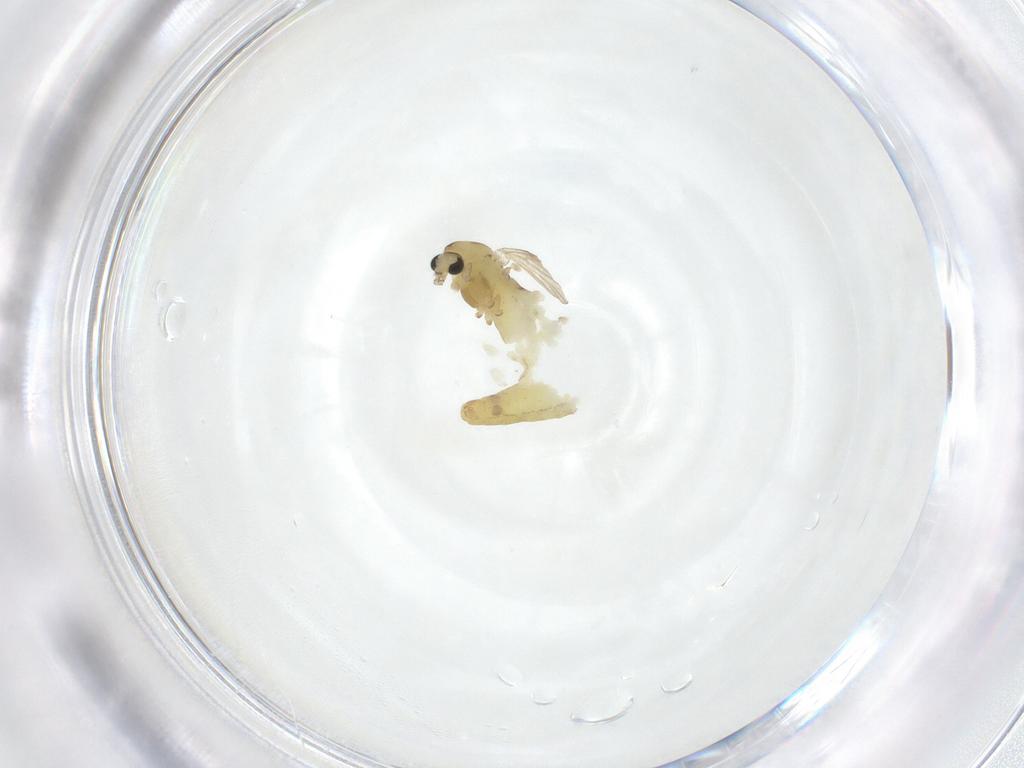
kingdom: Animalia
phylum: Arthropoda
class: Insecta
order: Diptera
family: Chironomidae
